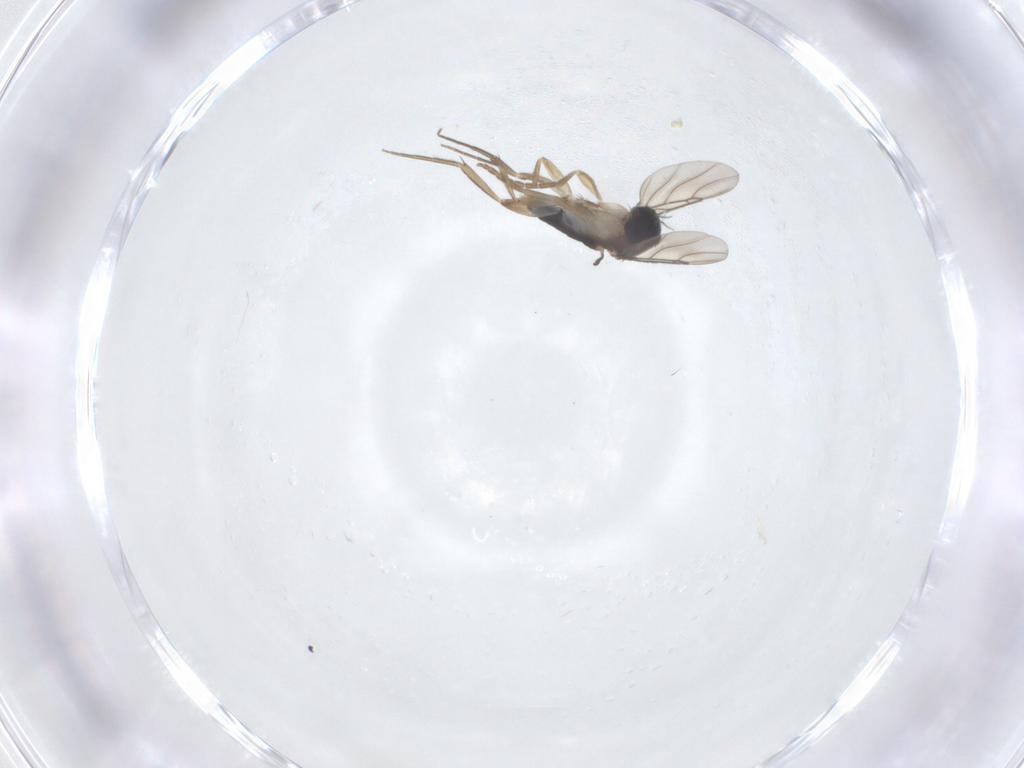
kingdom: Animalia
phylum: Arthropoda
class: Insecta
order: Diptera
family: Phoridae
